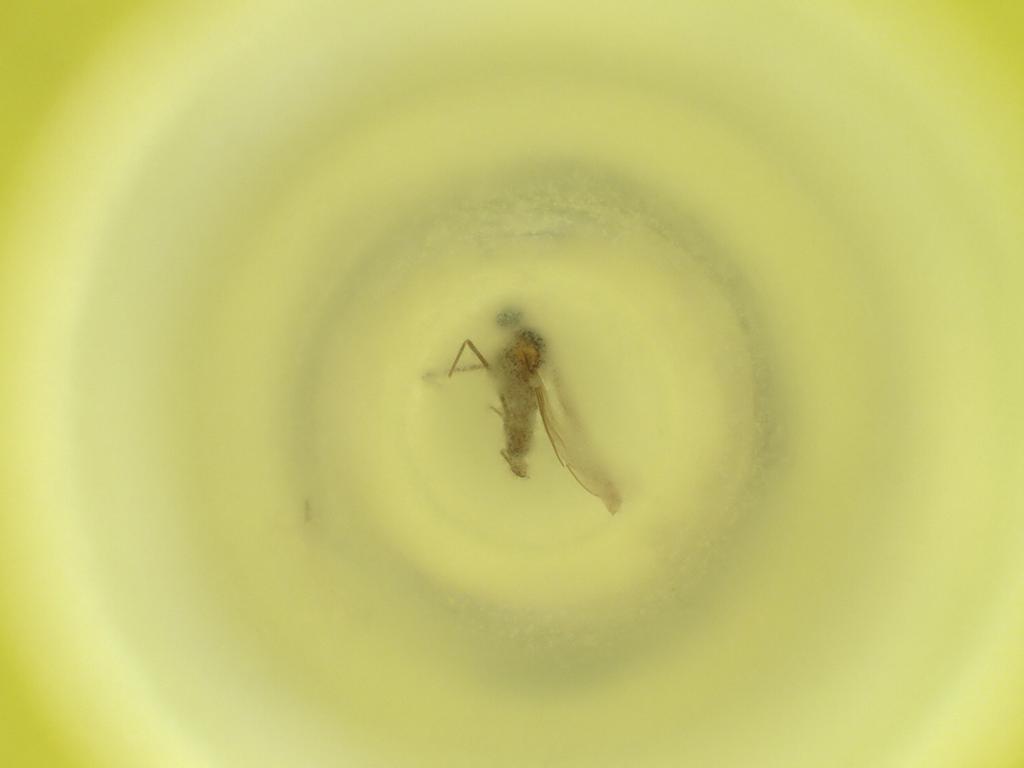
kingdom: Animalia
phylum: Arthropoda
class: Insecta
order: Diptera
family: Cecidomyiidae
